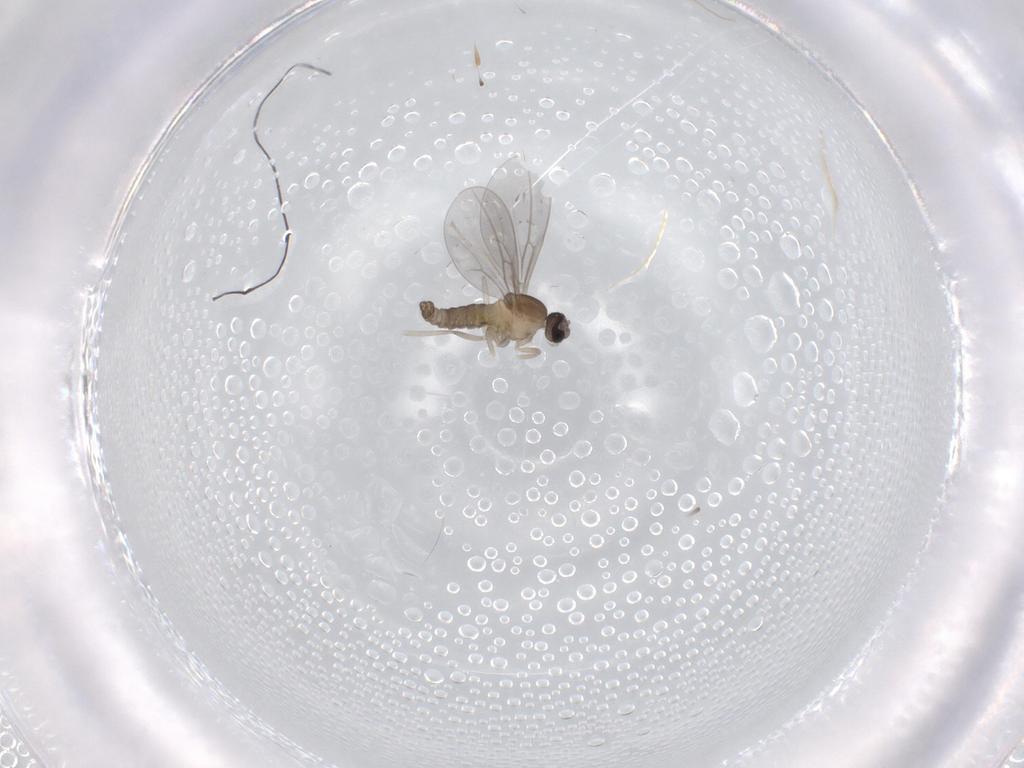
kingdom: Animalia
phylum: Arthropoda
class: Insecta
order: Diptera
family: Cecidomyiidae
